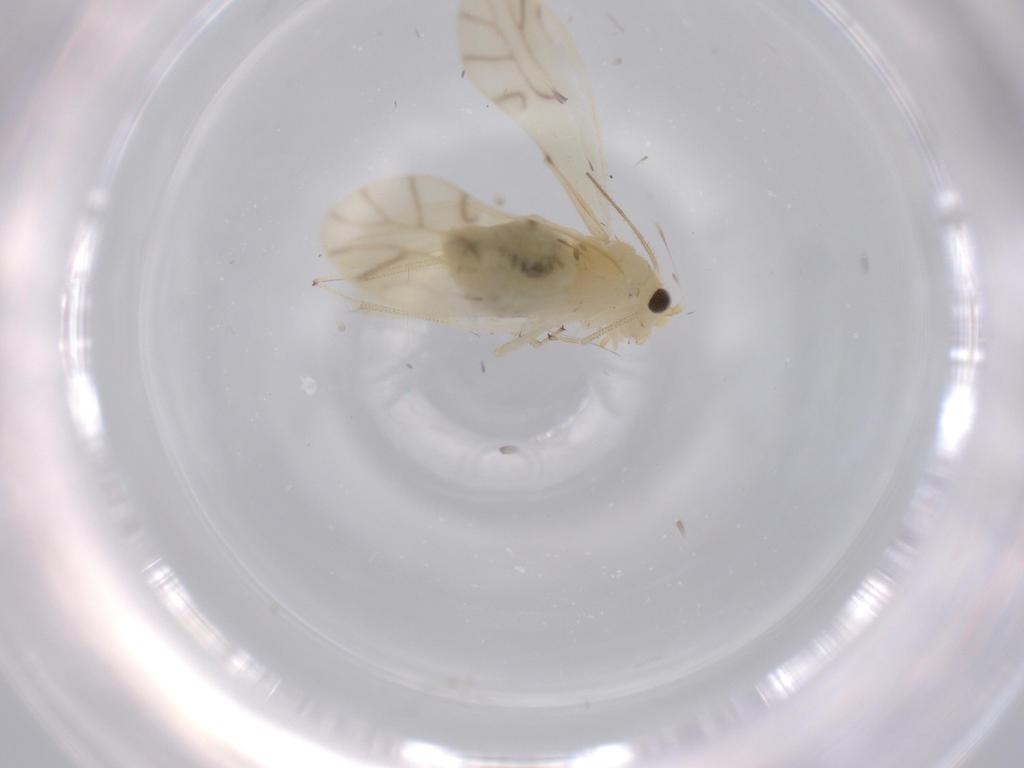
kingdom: Animalia
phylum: Arthropoda
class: Insecta
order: Psocodea
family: Caeciliusidae
